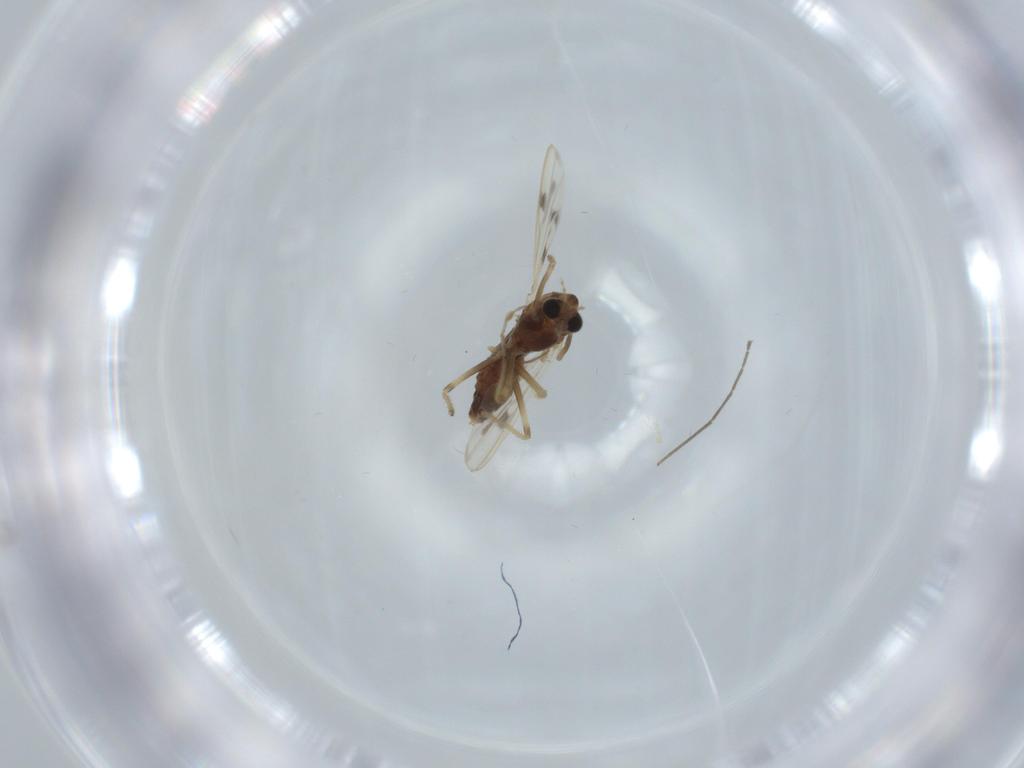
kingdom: Animalia
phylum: Arthropoda
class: Insecta
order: Diptera
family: Chironomidae
